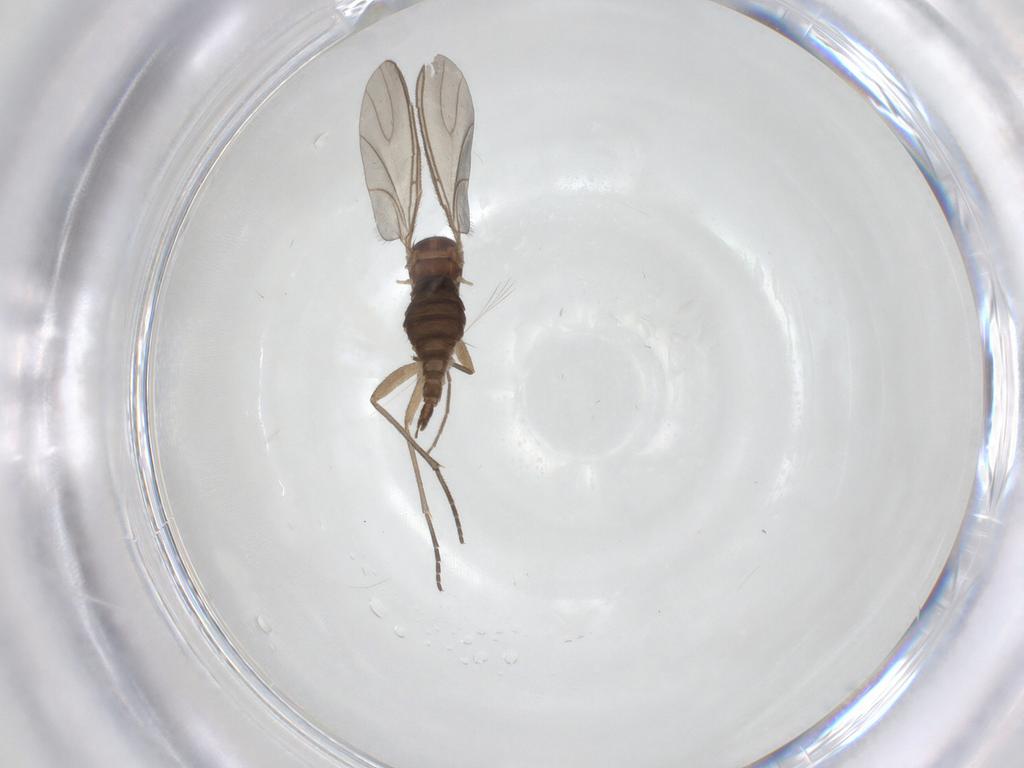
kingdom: Animalia
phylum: Arthropoda
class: Insecta
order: Diptera
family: Sciaridae
